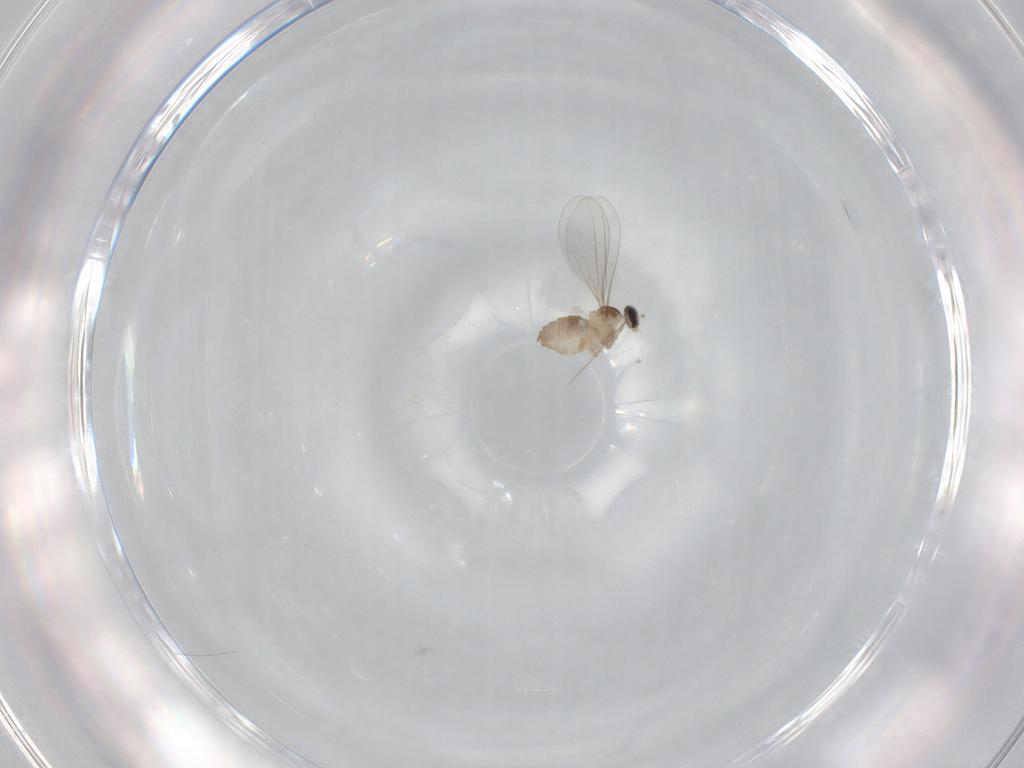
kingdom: Animalia
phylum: Arthropoda
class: Insecta
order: Diptera
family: Cecidomyiidae
